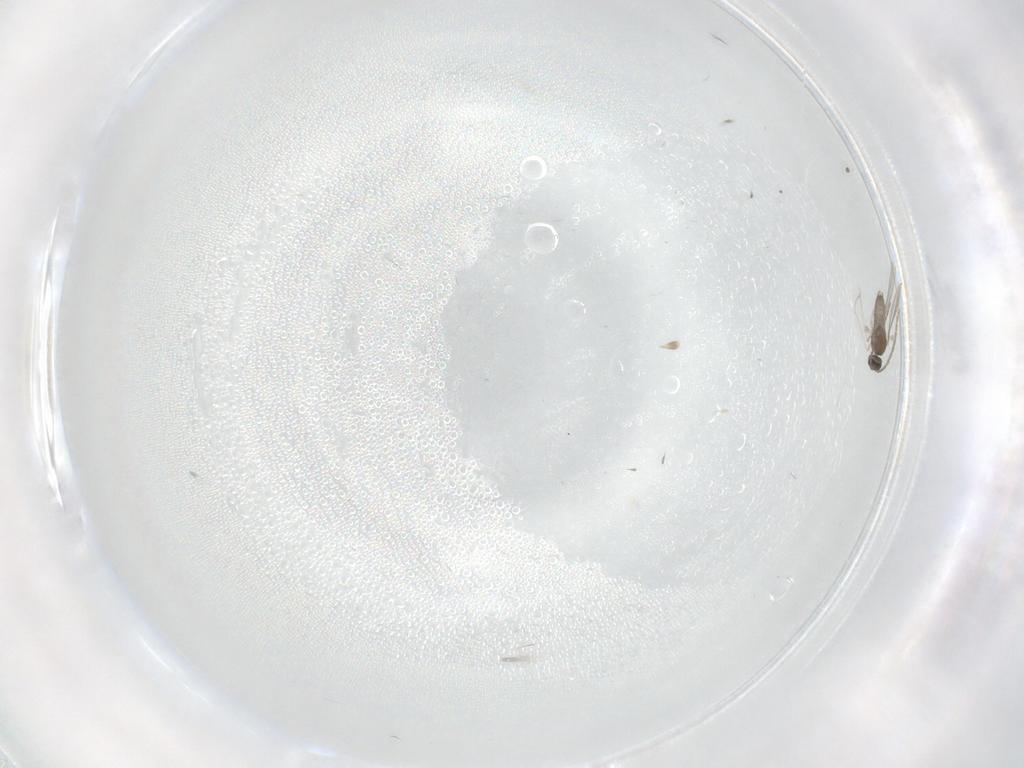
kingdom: Animalia
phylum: Arthropoda
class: Insecta
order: Diptera
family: Cecidomyiidae
